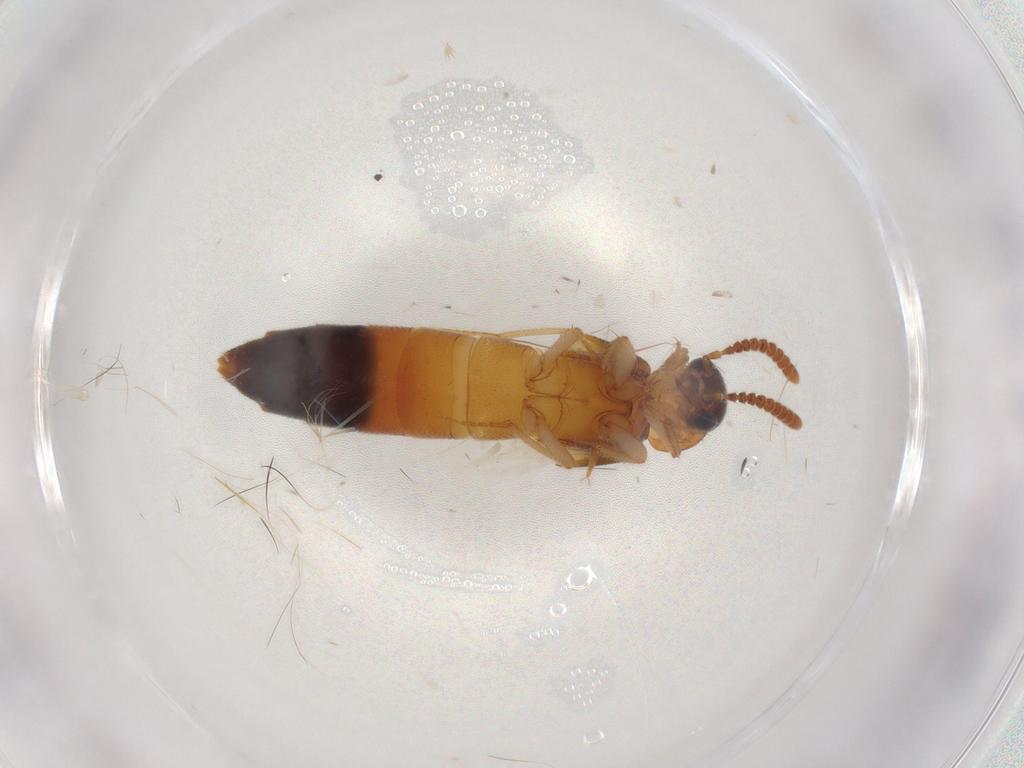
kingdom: Animalia
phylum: Arthropoda
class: Insecta
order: Coleoptera
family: Staphylinidae
